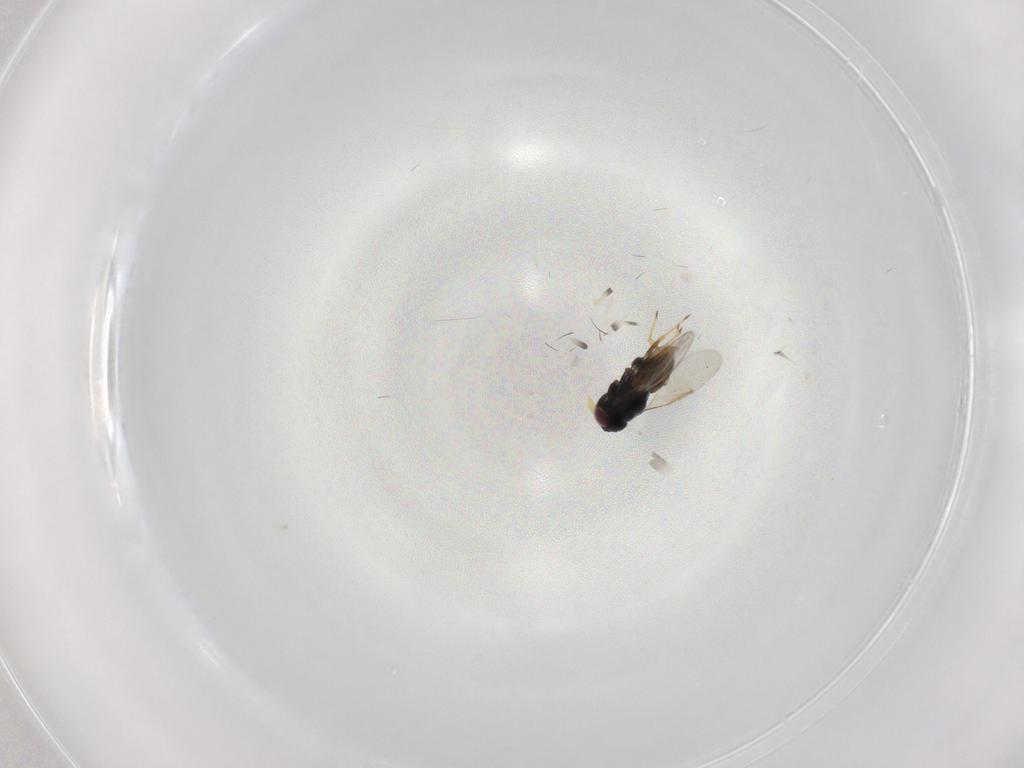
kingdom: Animalia
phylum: Arthropoda
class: Insecta
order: Hymenoptera
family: Aphelinidae
